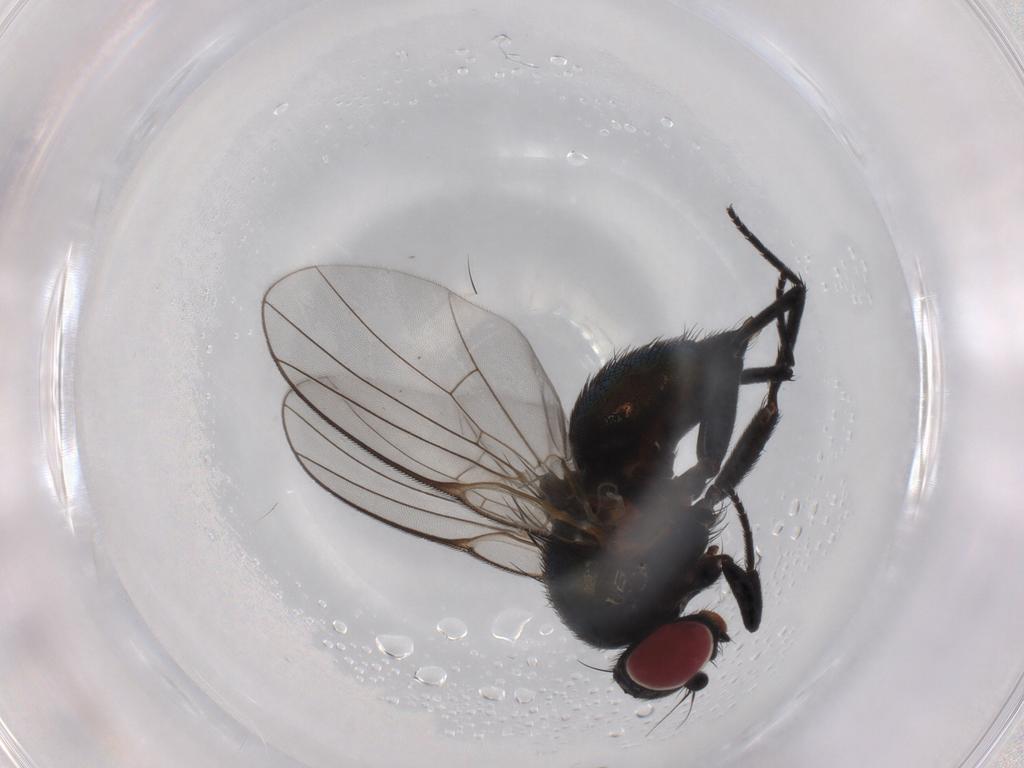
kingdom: Animalia
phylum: Arthropoda
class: Insecta
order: Diptera
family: Agromyzidae
